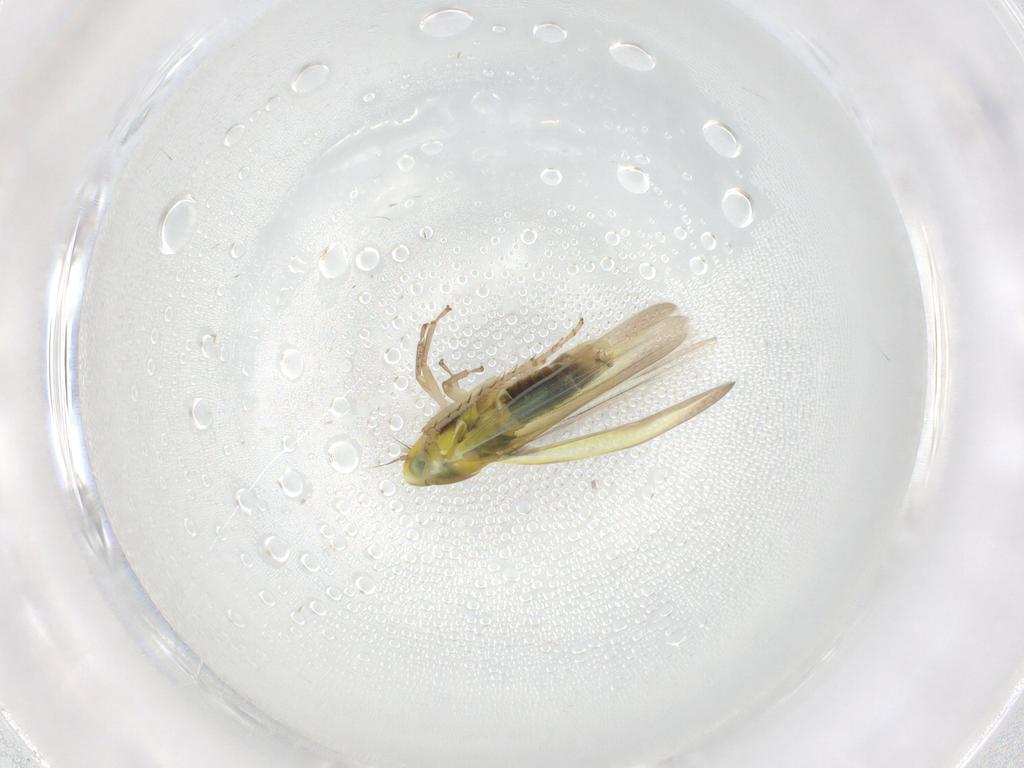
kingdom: Animalia
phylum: Arthropoda
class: Insecta
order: Hemiptera
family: Cicadellidae
